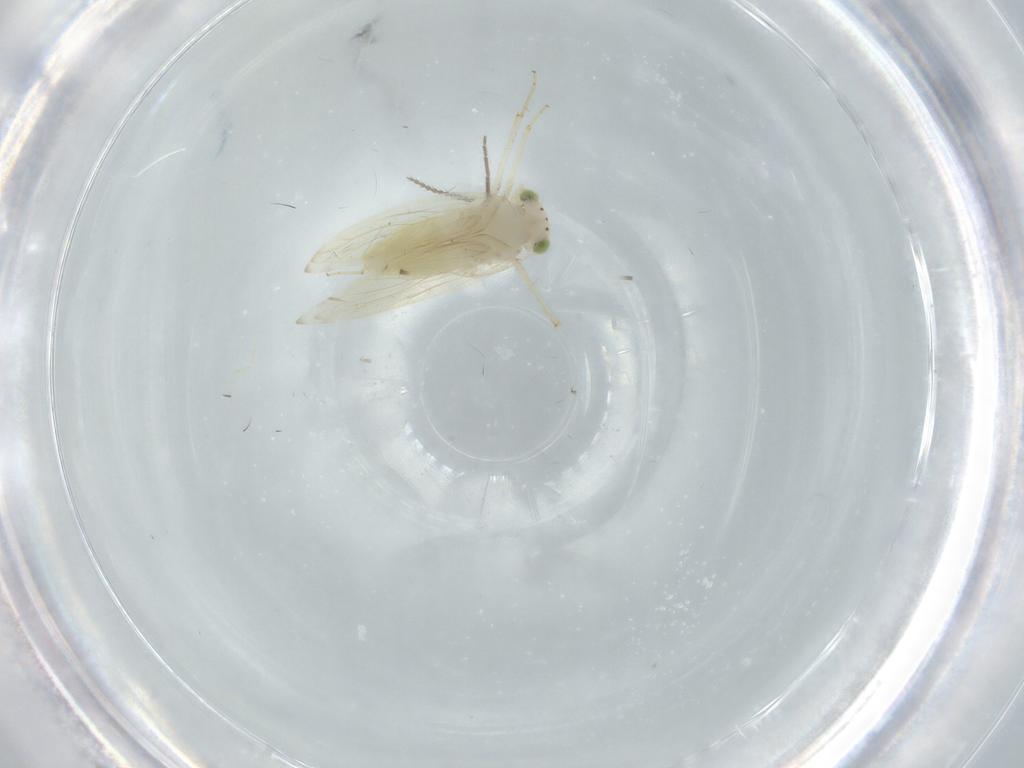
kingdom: Animalia
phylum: Arthropoda
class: Insecta
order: Psocodea
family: Lepidopsocidae
